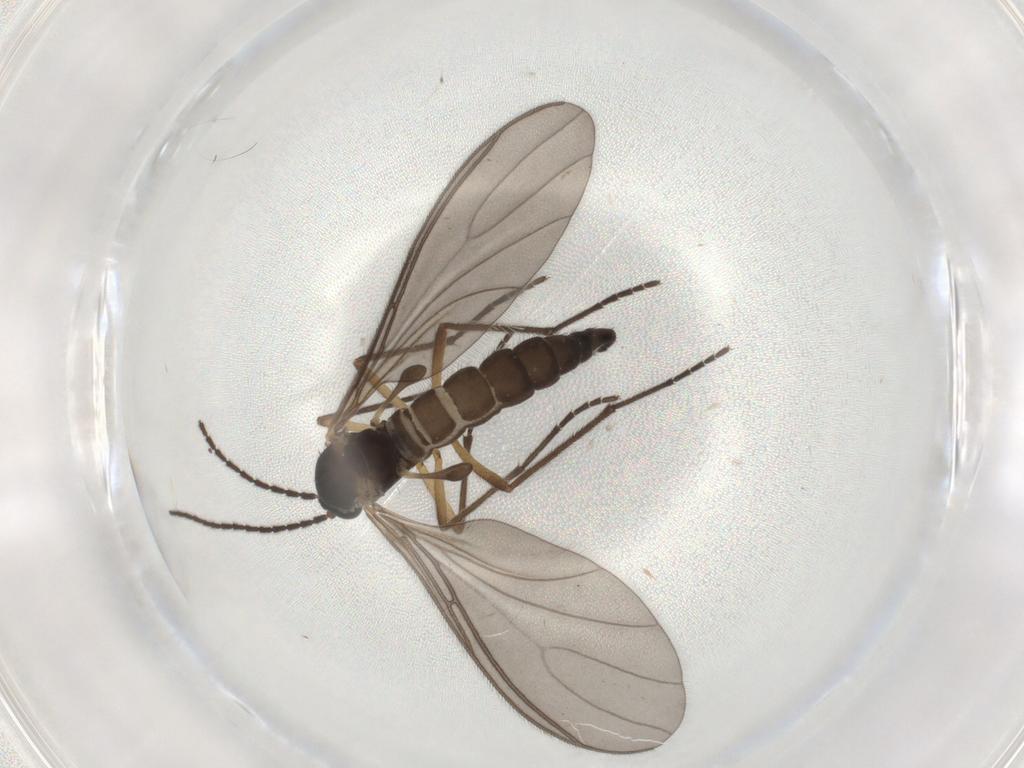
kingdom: Animalia
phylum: Arthropoda
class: Insecta
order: Diptera
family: Sciaridae
